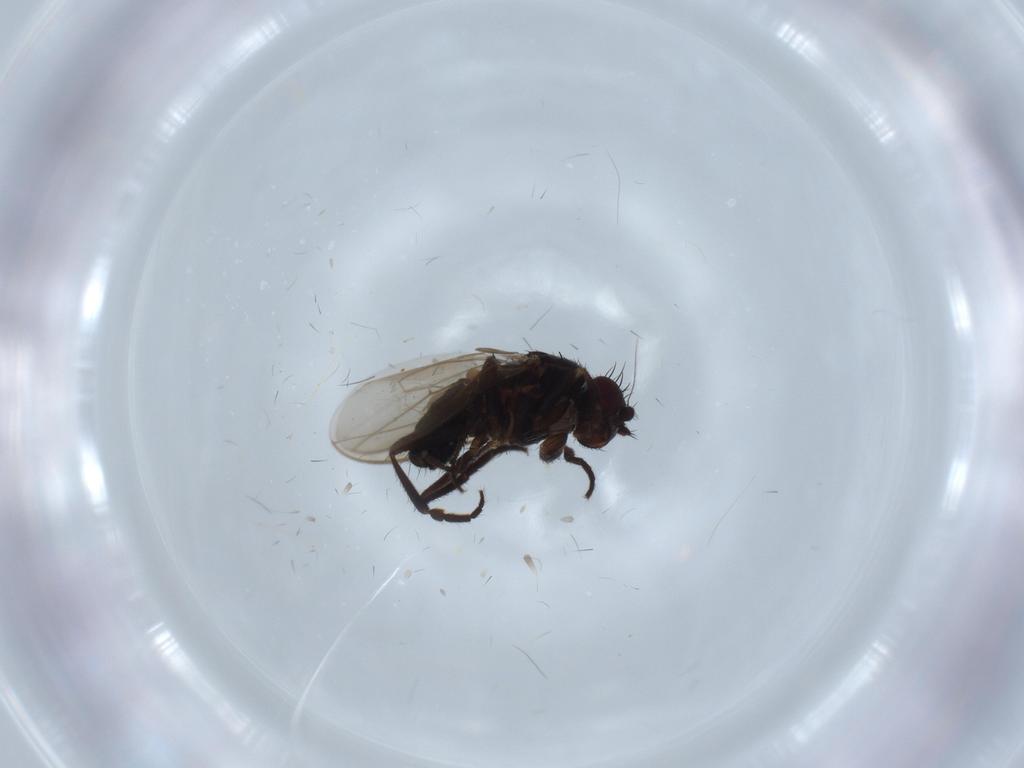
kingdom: Animalia
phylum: Arthropoda
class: Insecta
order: Diptera
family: Sphaeroceridae
